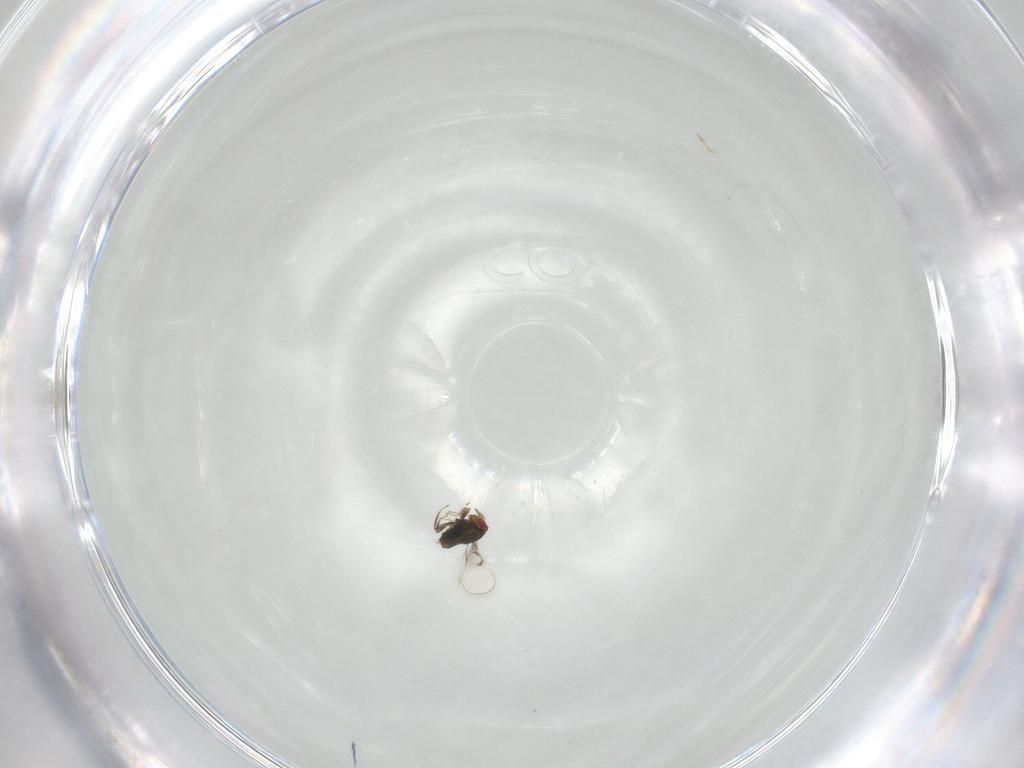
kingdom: Animalia
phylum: Arthropoda
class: Insecta
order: Hymenoptera
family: Trichogrammatidae
